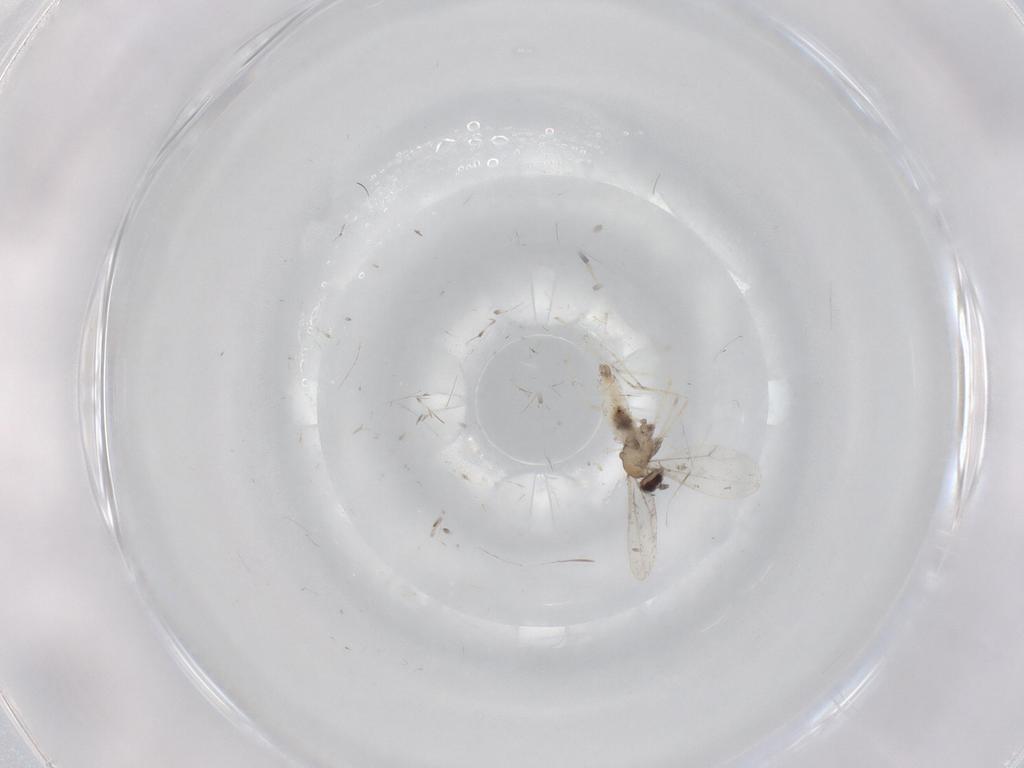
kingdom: Animalia
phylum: Arthropoda
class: Insecta
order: Diptera
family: Cecidomyiidae
